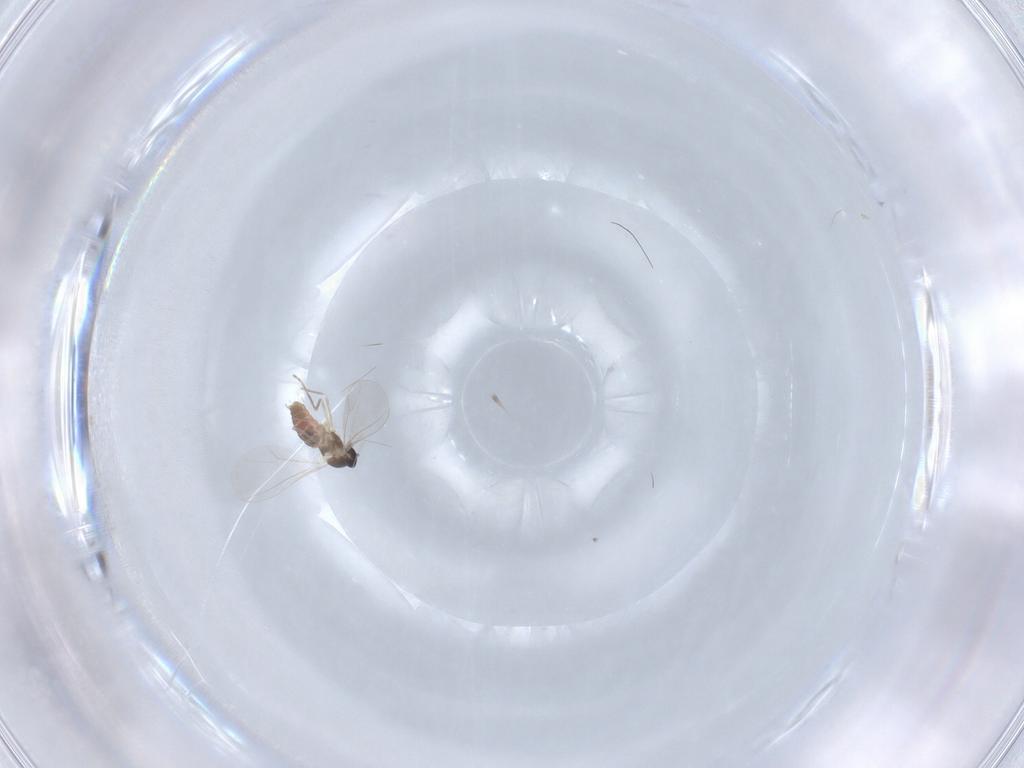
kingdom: Animalia
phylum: Arthropoda
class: Insecta
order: Diptera
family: Cecidomyiidae
